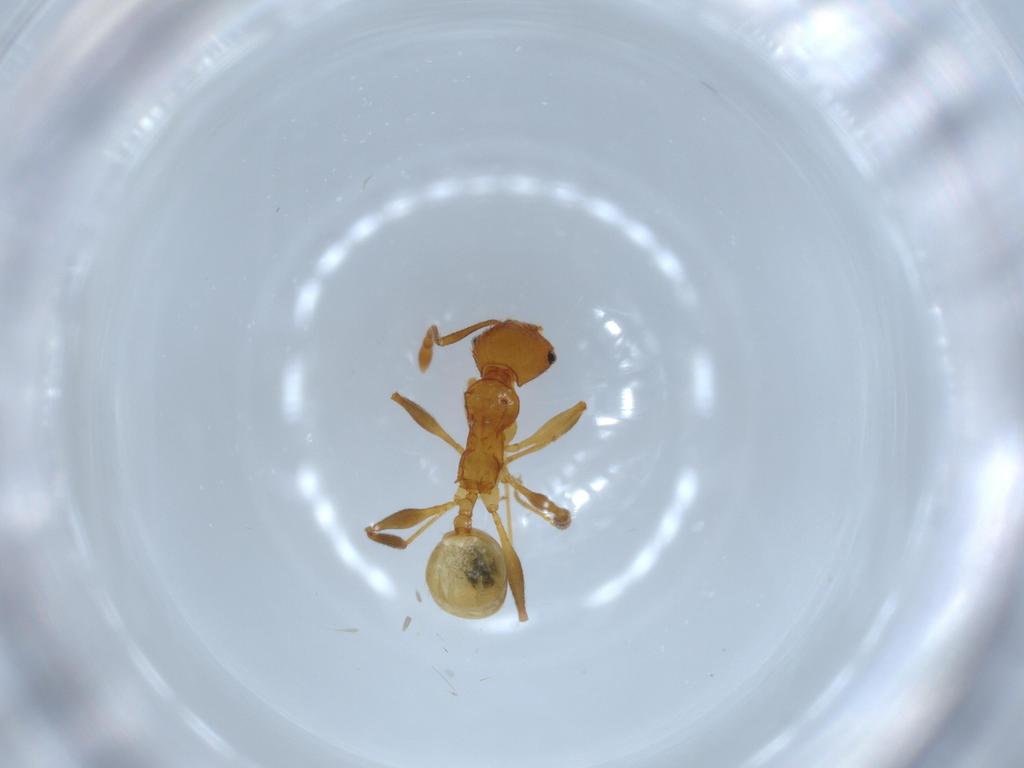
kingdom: Animalia
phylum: Arthropoda
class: Insecta
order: Hymenoptera
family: Formicidae
